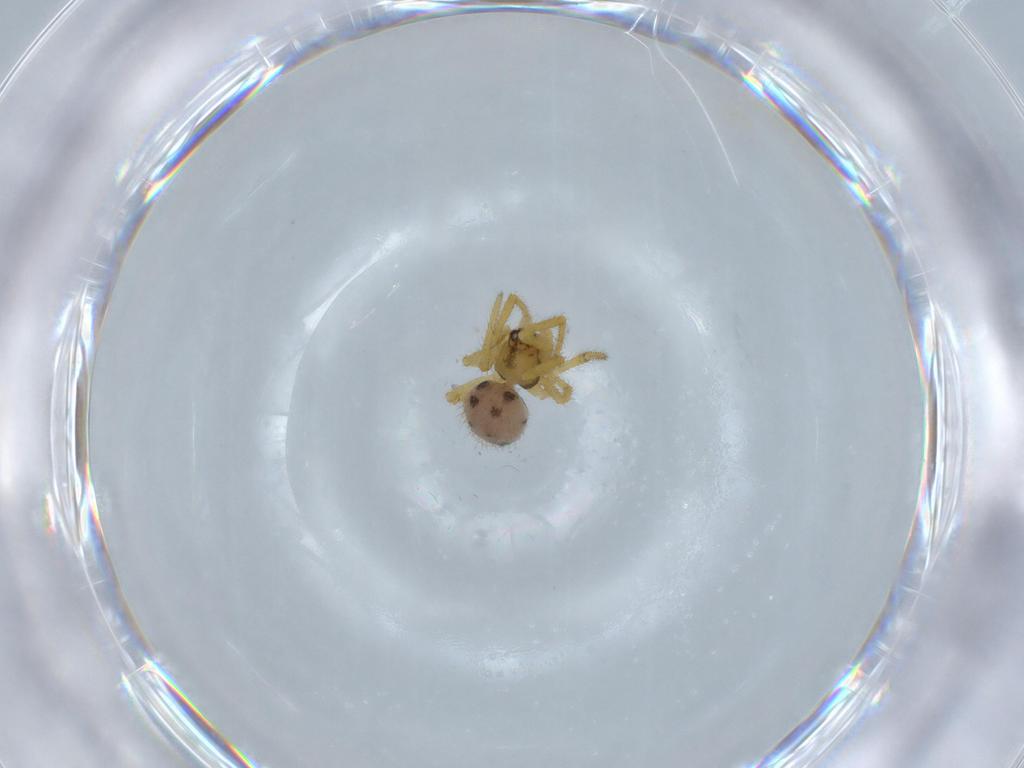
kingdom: Animalia
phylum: Arthropoda
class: Arachnida
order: Araneae
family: Theridiidae
